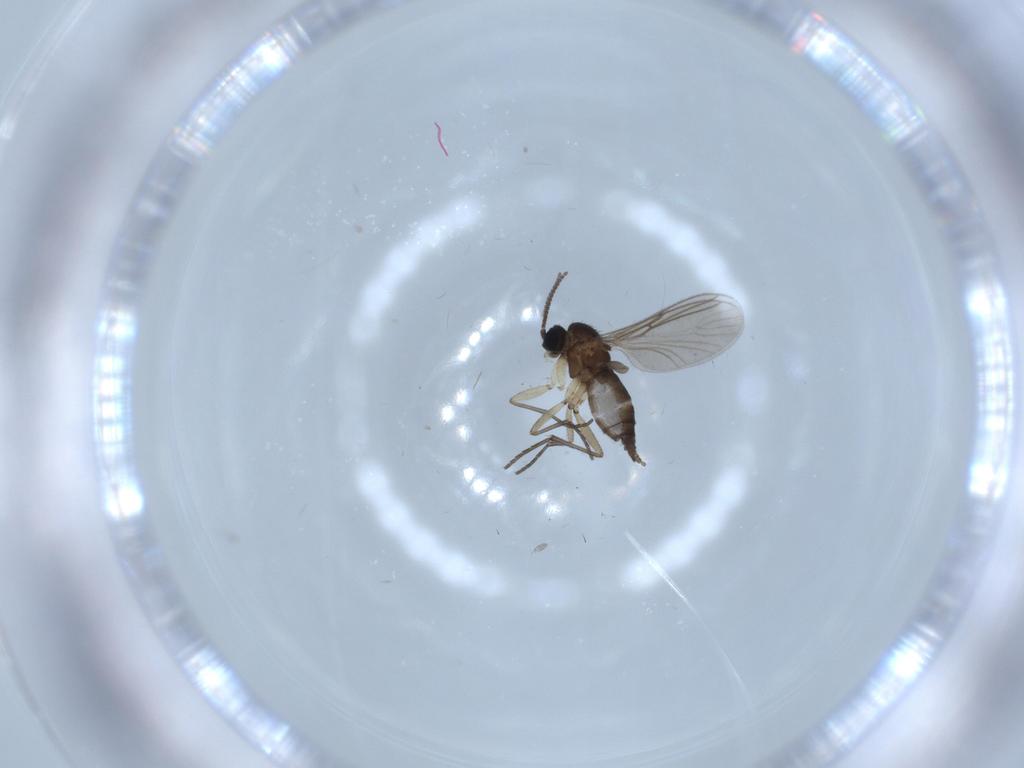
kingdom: Animalia
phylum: Arthropoda
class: Insecta
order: Diptera
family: Sciaridae
